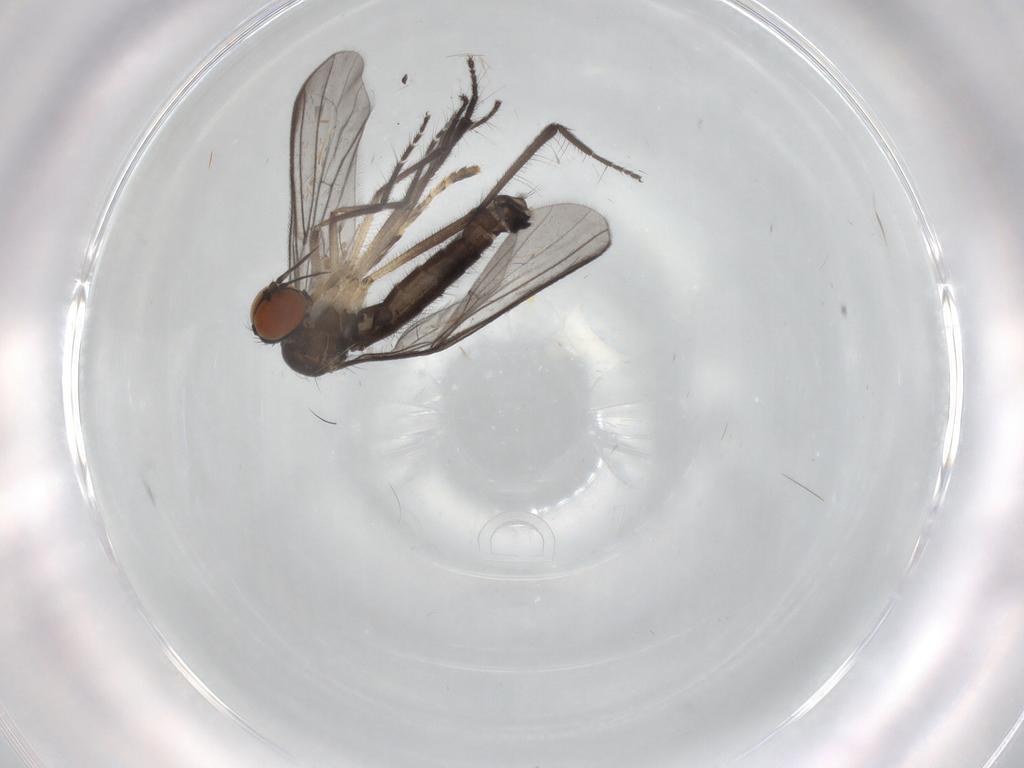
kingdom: Animalia
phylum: Arthropoda
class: Insecta
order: Diptera
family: Empididae
